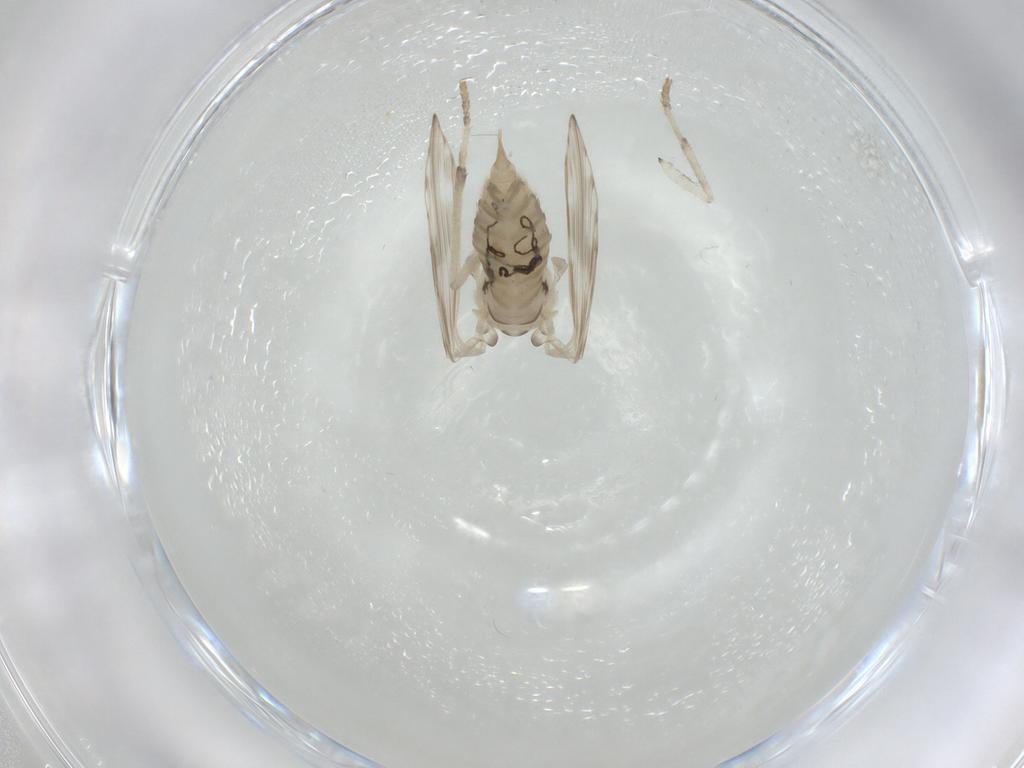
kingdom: Animalia
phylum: Arthropoda
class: Insecta
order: Diptera
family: Psychodidae
